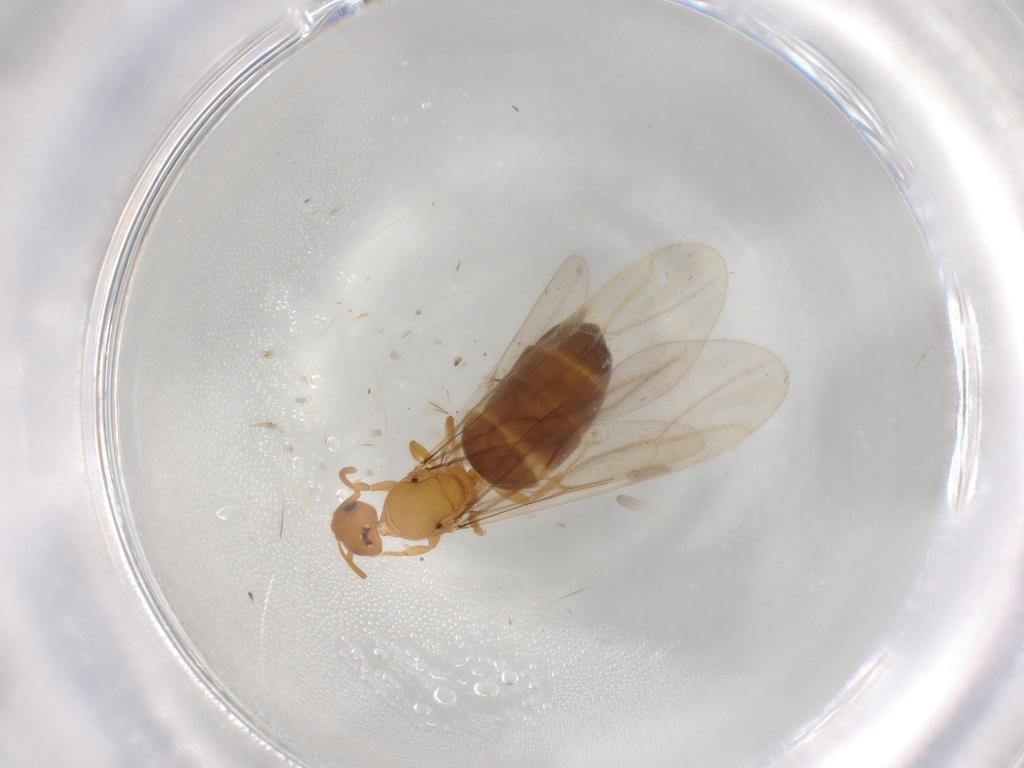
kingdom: Animalia
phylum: Arthropoda
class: Insecta
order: Hymenoptera
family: Formicidae
